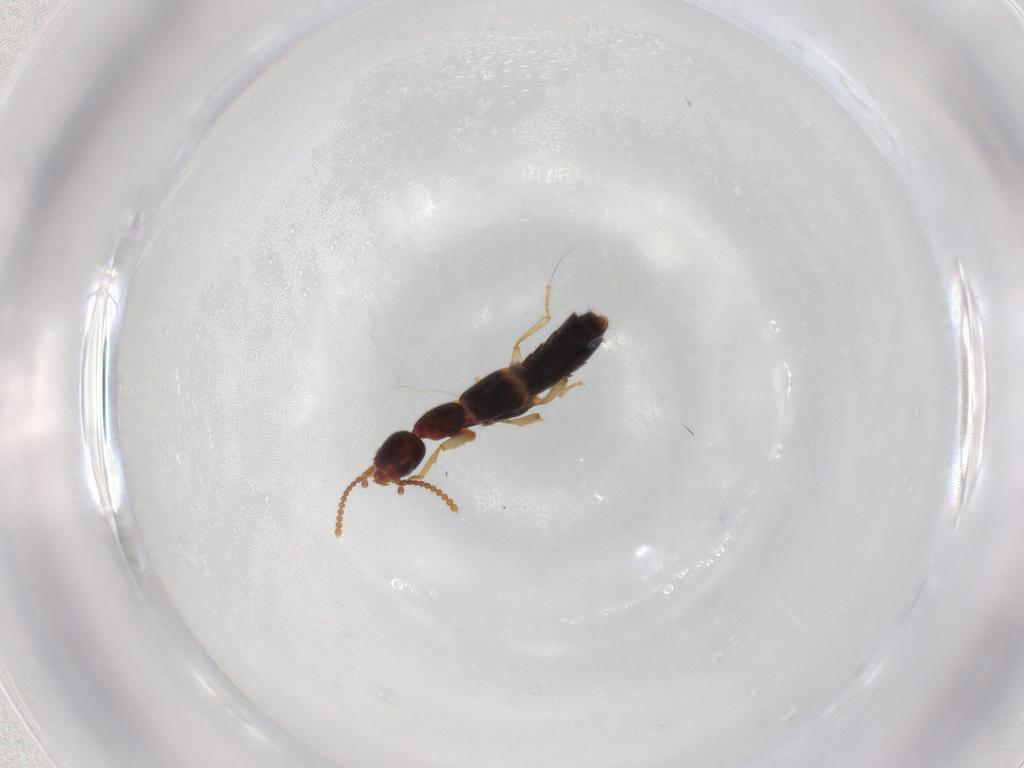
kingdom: Animalia
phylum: Arthropoda
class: Insecta
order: Coleoptera
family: Staphylinidae
